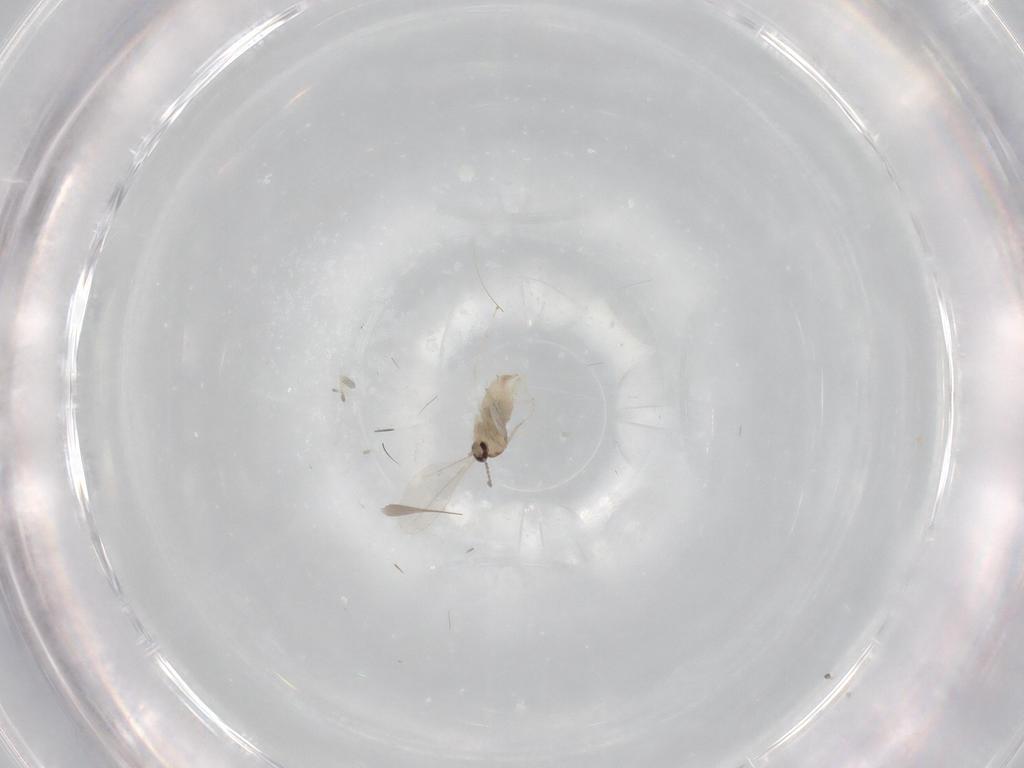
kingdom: Animalia
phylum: Arthropoda
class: Insecta
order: Diptera
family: Cecidomyiidae
